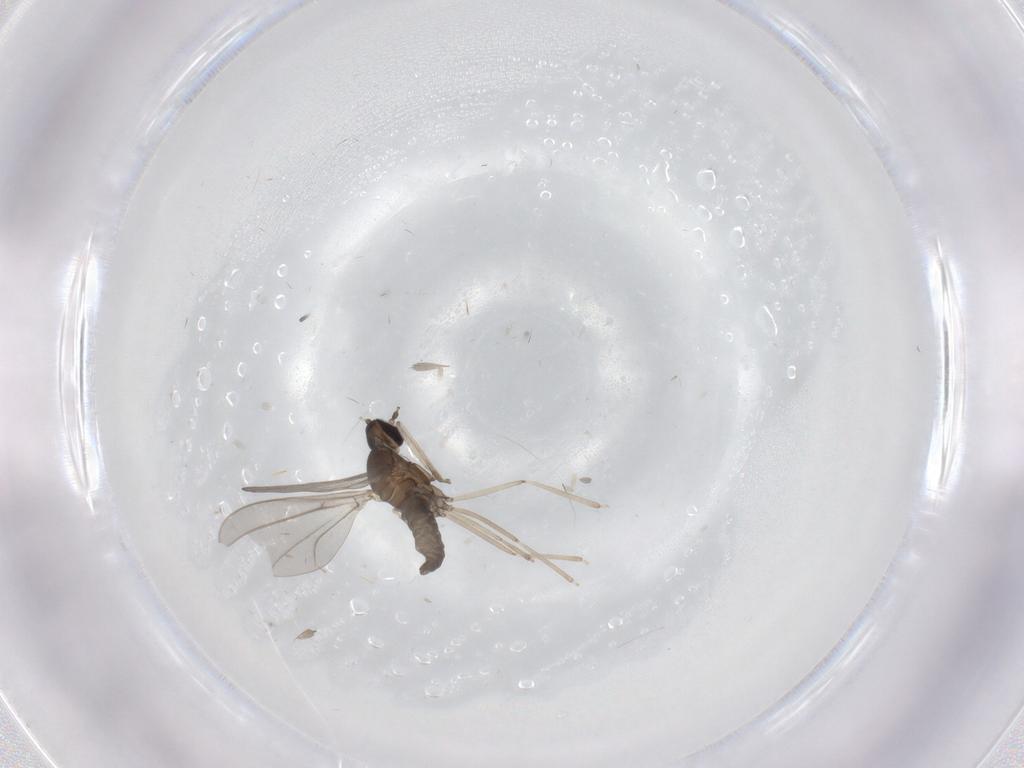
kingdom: Animalia
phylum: Arthropoda
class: Insecta
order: Diptera
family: Cecidomyiidae
